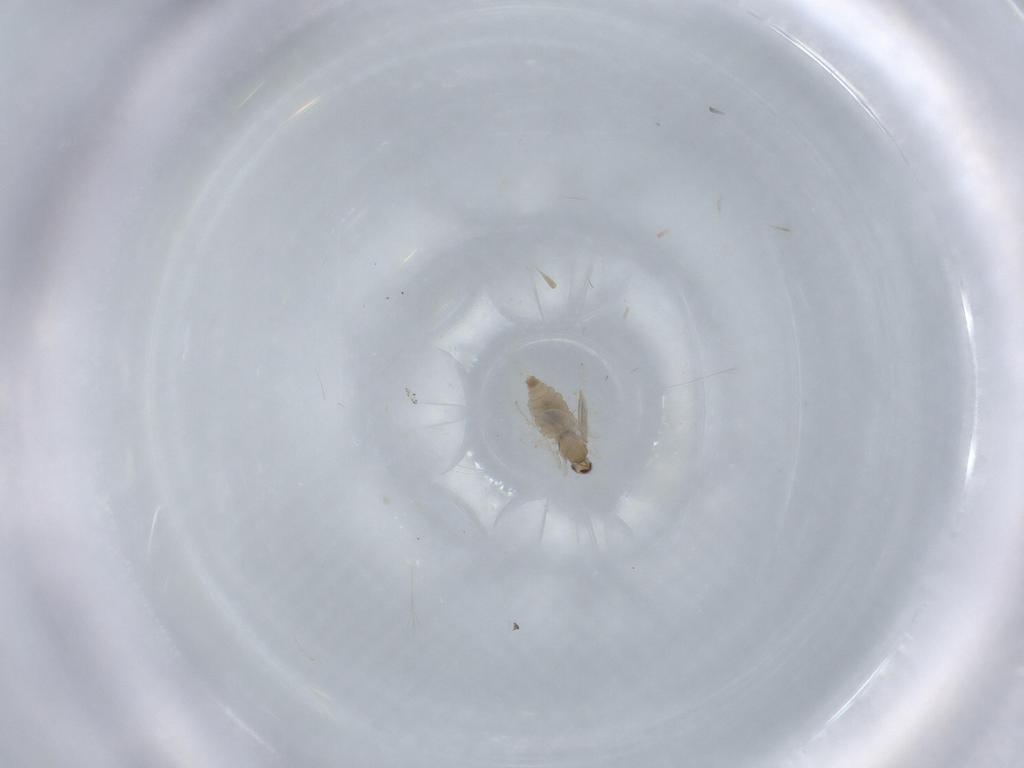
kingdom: Animalia
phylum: Arthropoda
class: Insecta
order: Diptera
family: Cecidomyiidae
